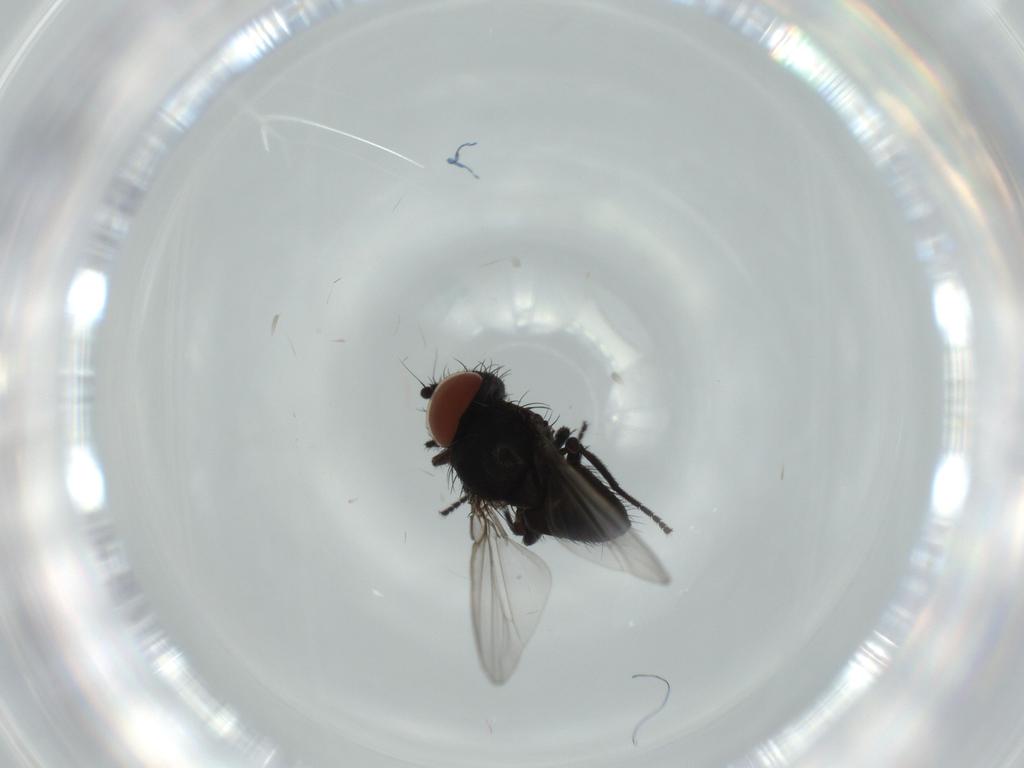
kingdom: Animalia
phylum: Arthropoda
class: Insecta
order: Diptera
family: Milichiidae
